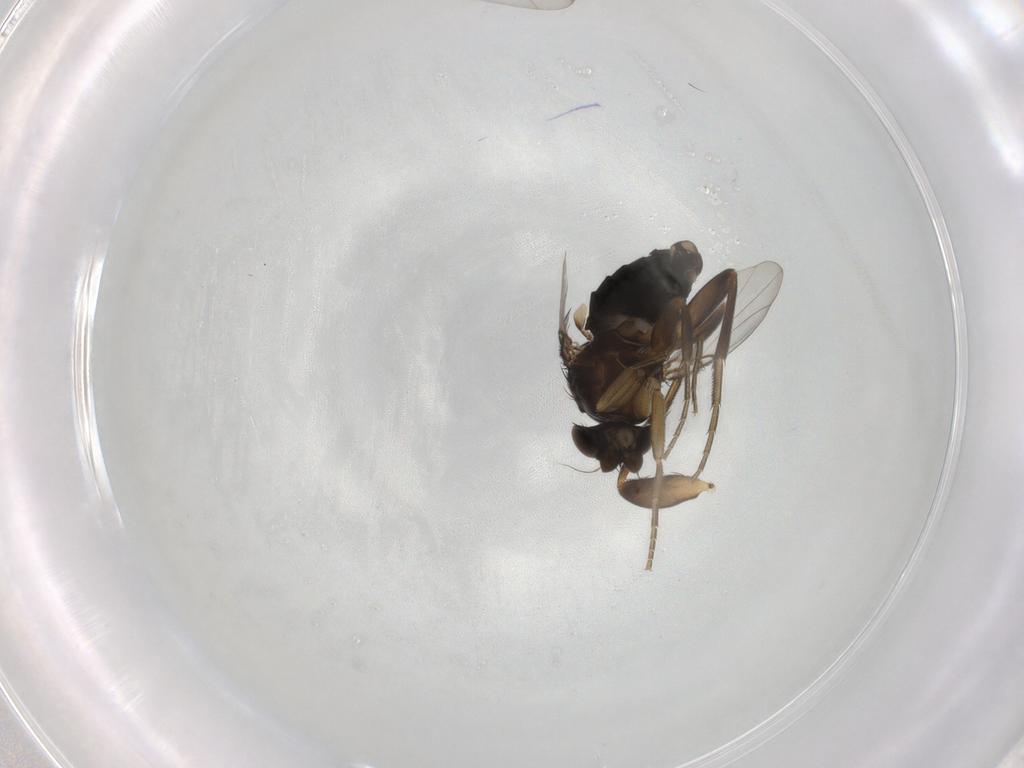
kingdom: Animalia
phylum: Arthropoda
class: Insecta
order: Diptera
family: Phoridae
